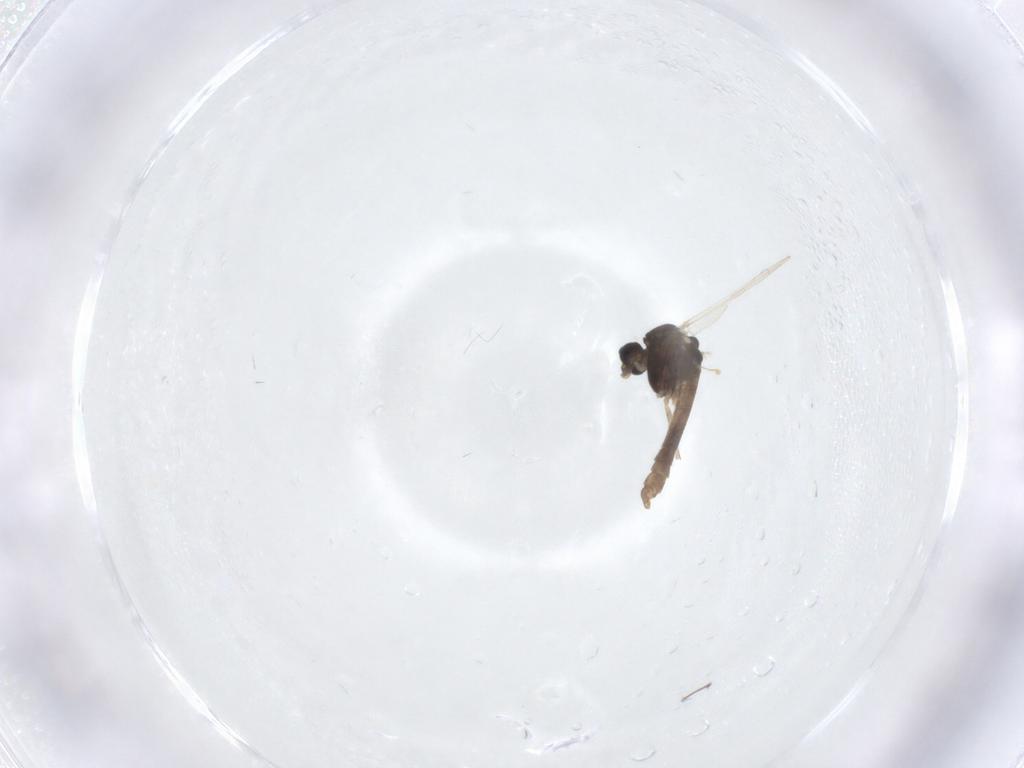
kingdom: Animalia
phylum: Arthropoda
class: Insecta
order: Diptera
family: Chironomidae
